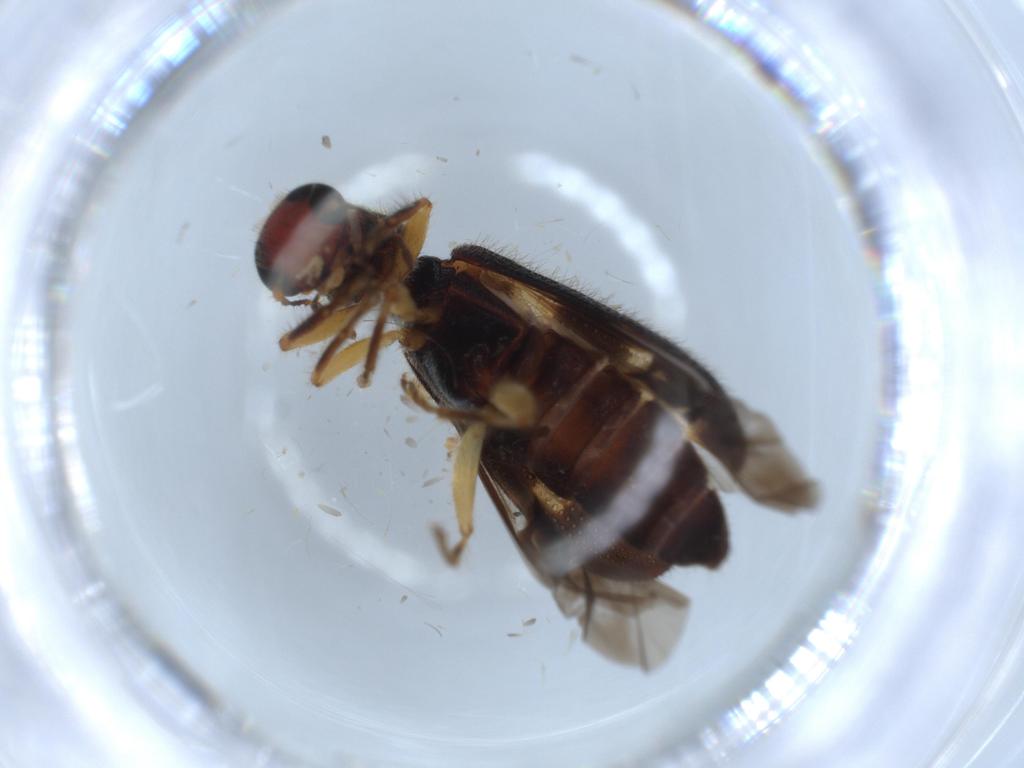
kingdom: Animalia
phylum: Arthropoda
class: Insecta
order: Coleoptera
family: Cleridae
